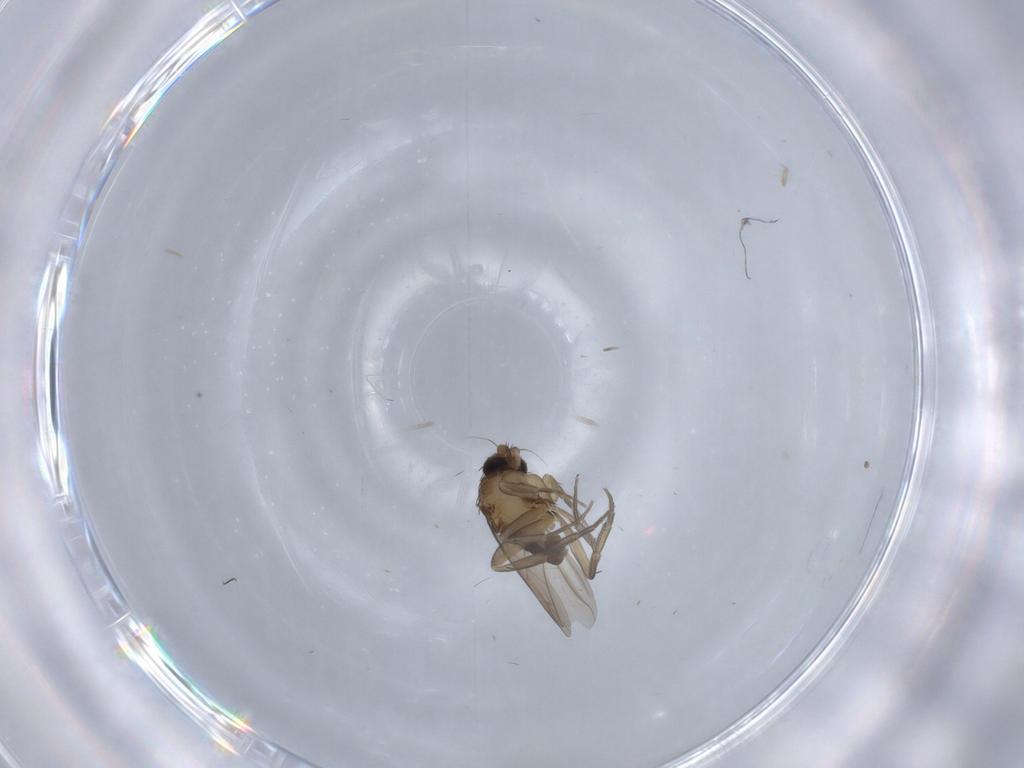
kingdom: Animalia
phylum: Arthropoda
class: Insecta
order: Diptera
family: Phoridae
